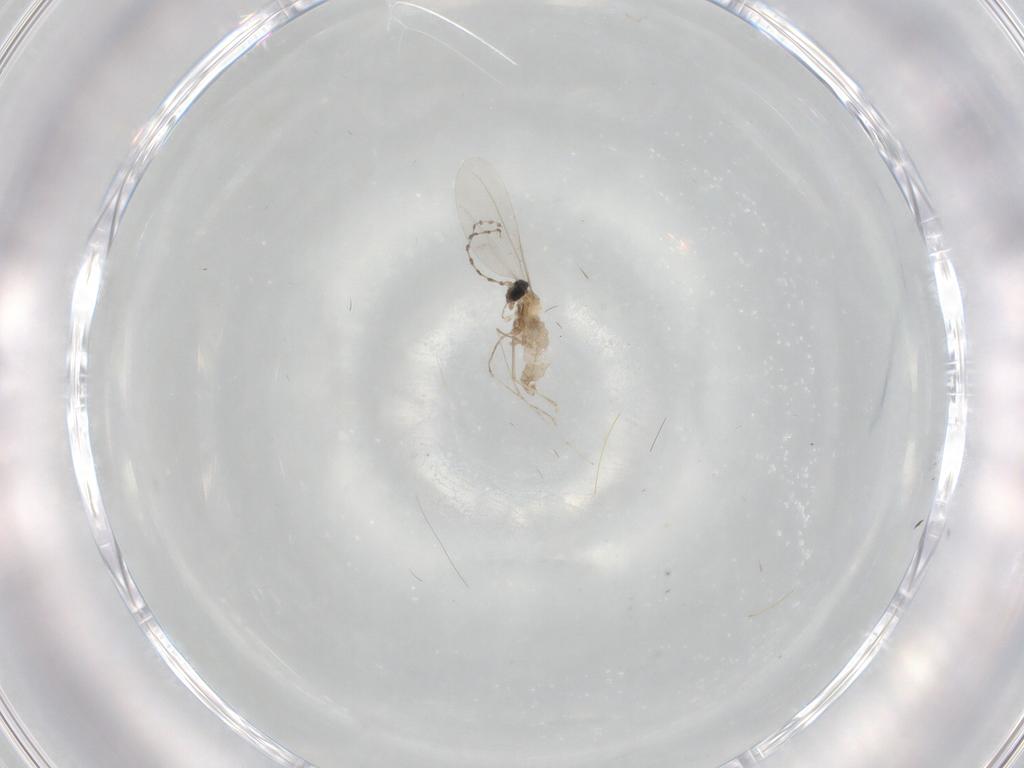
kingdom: Animalia
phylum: Arthropoda
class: Insecta
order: Diptera
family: Cecidomyiidae
